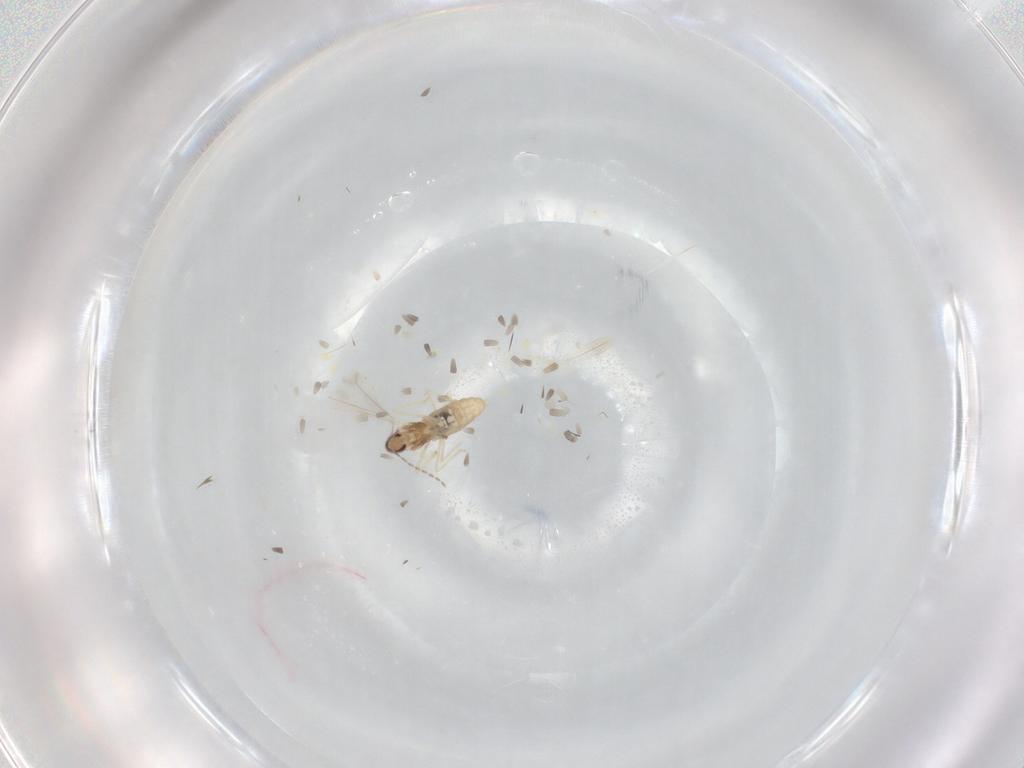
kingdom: Animalia
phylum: Arthropoda
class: Insecta
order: Diptera
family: Cecidomyiidae
